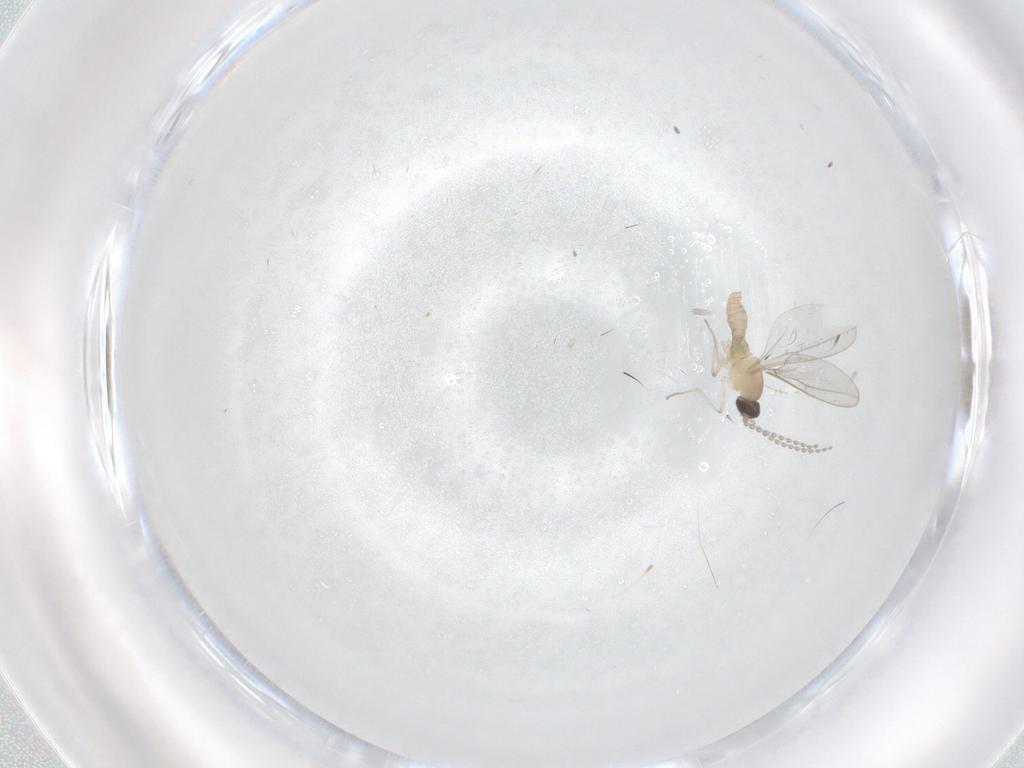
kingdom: Animalia
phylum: Arthropoda
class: Insecta
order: Diptera
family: Cecidomyiidae
